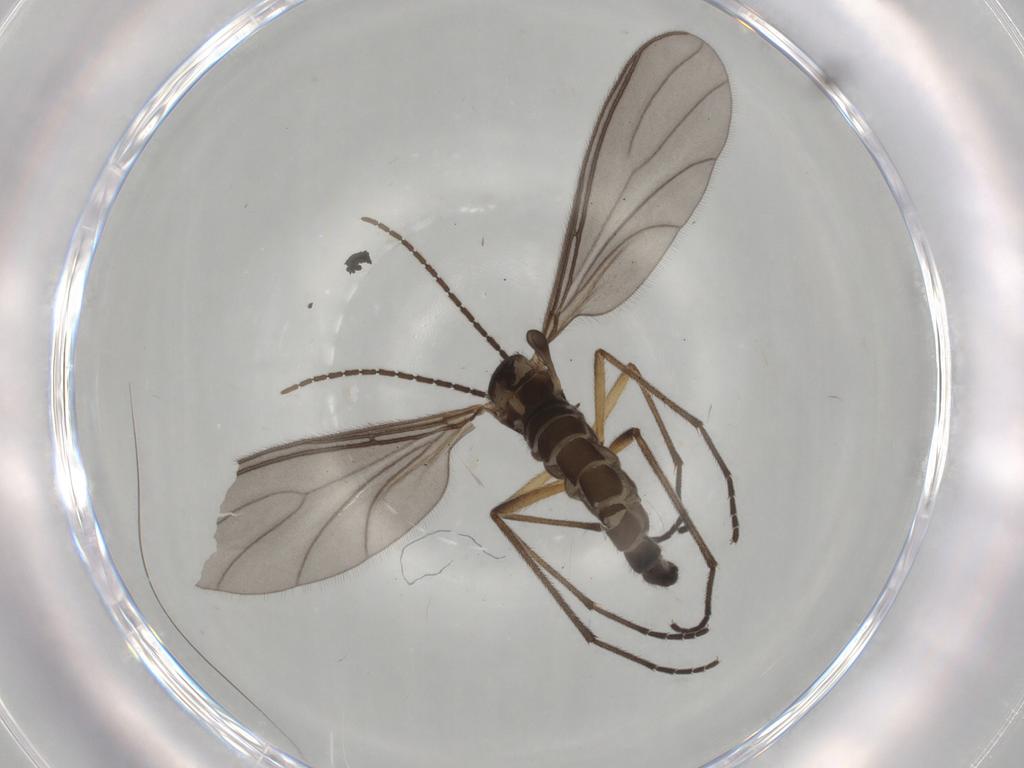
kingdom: Animalia
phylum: Arthropoda
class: Insecta
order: Diptera
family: Sciaridae
